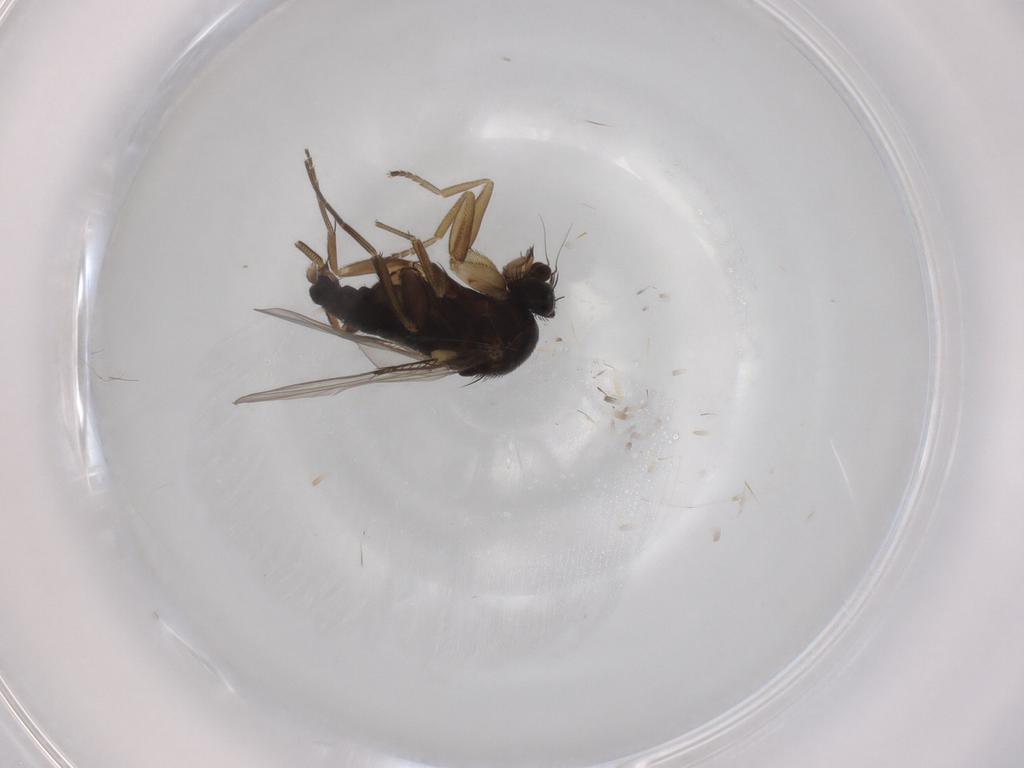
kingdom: Animalia
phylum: Arthropoda
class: Insecta
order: Diptera
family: Phoridae
